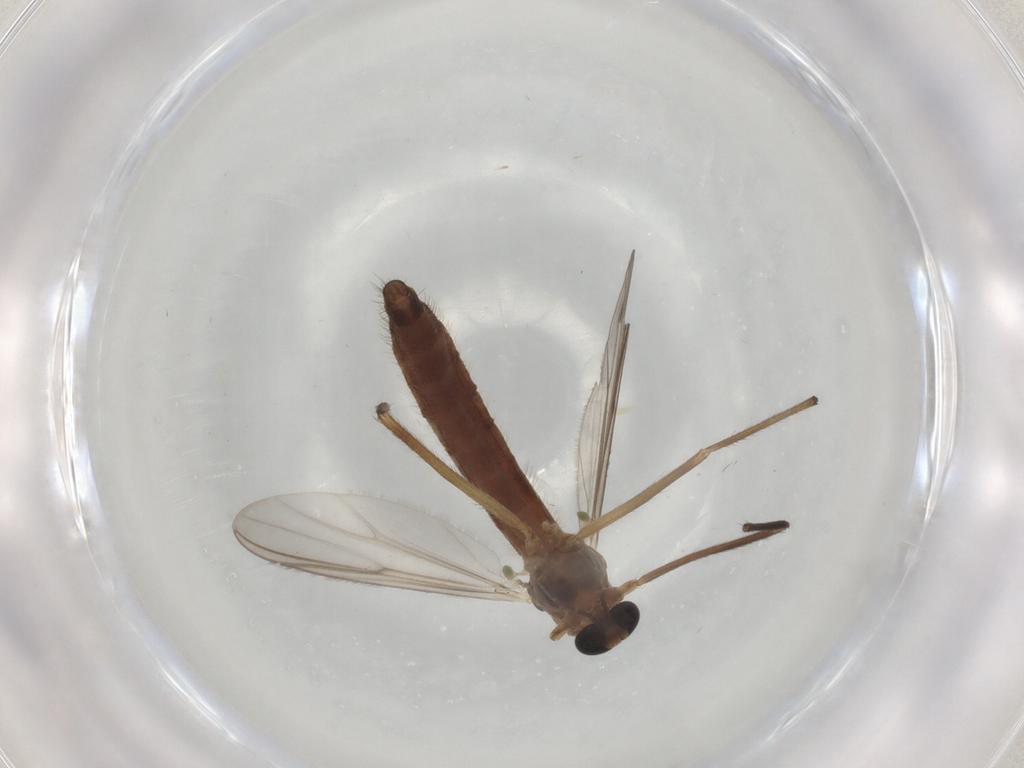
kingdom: Animalia
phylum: Arthropoda
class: Insecta
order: Diptera
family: Chironomidae
